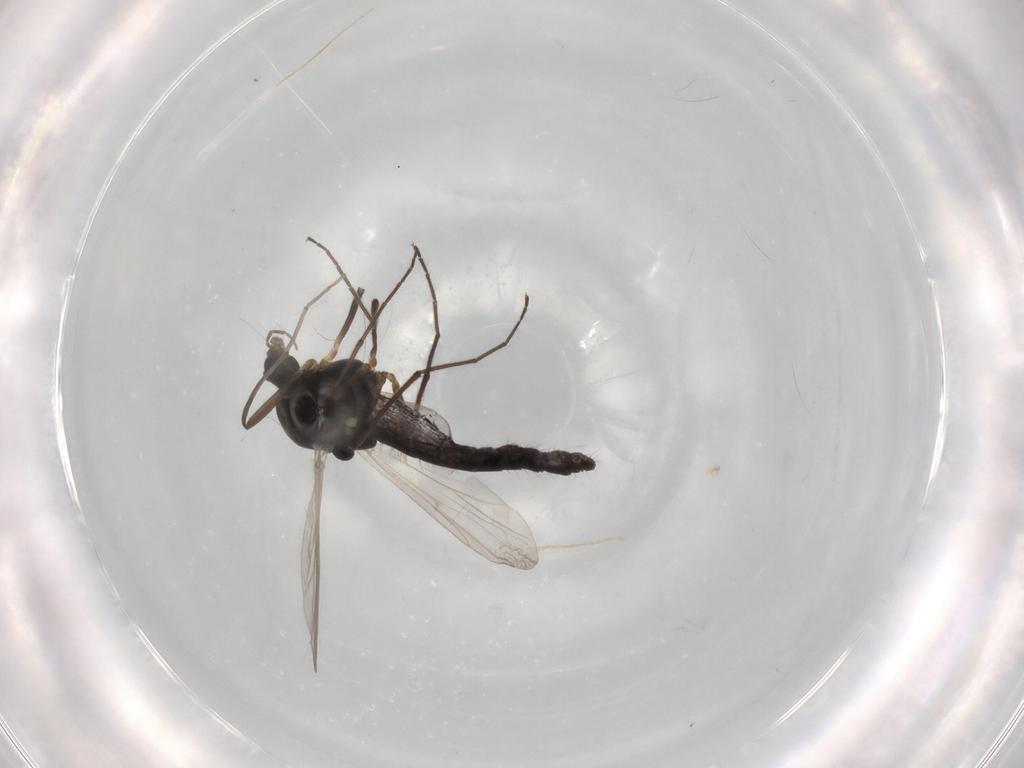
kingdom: Animalia
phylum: Arthropoda
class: Insecta
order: Diptera
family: Chironomidae
